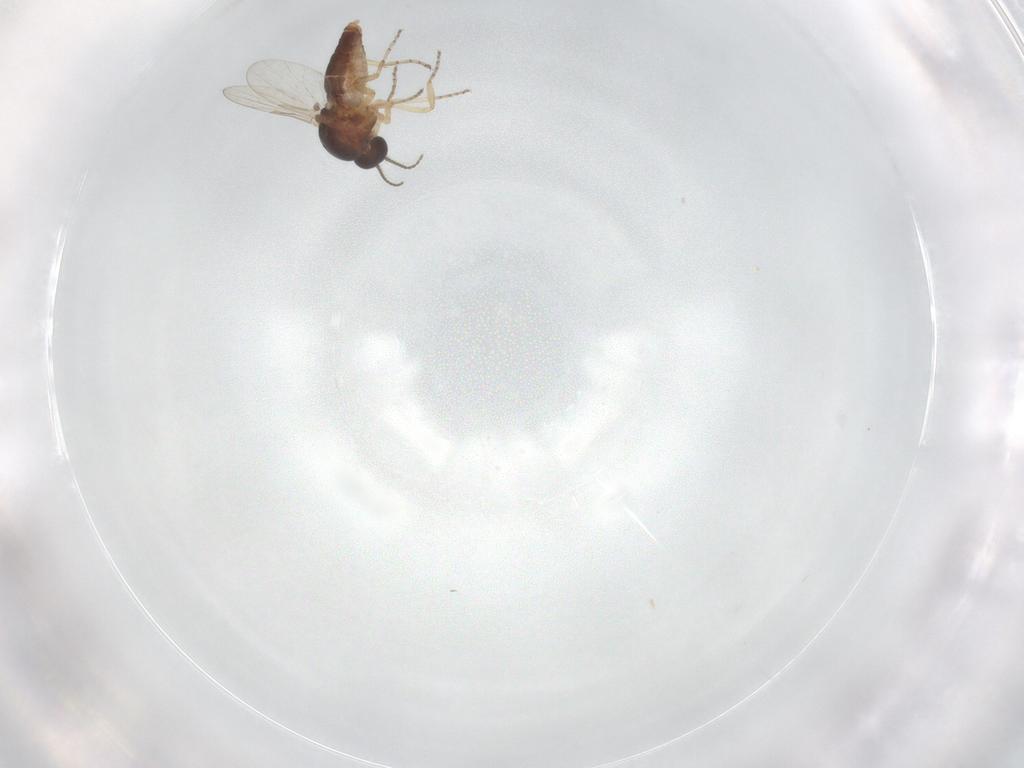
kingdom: Animalia
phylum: Arthropoda
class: Insecta
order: Diptera
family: Ceratopogonidae
